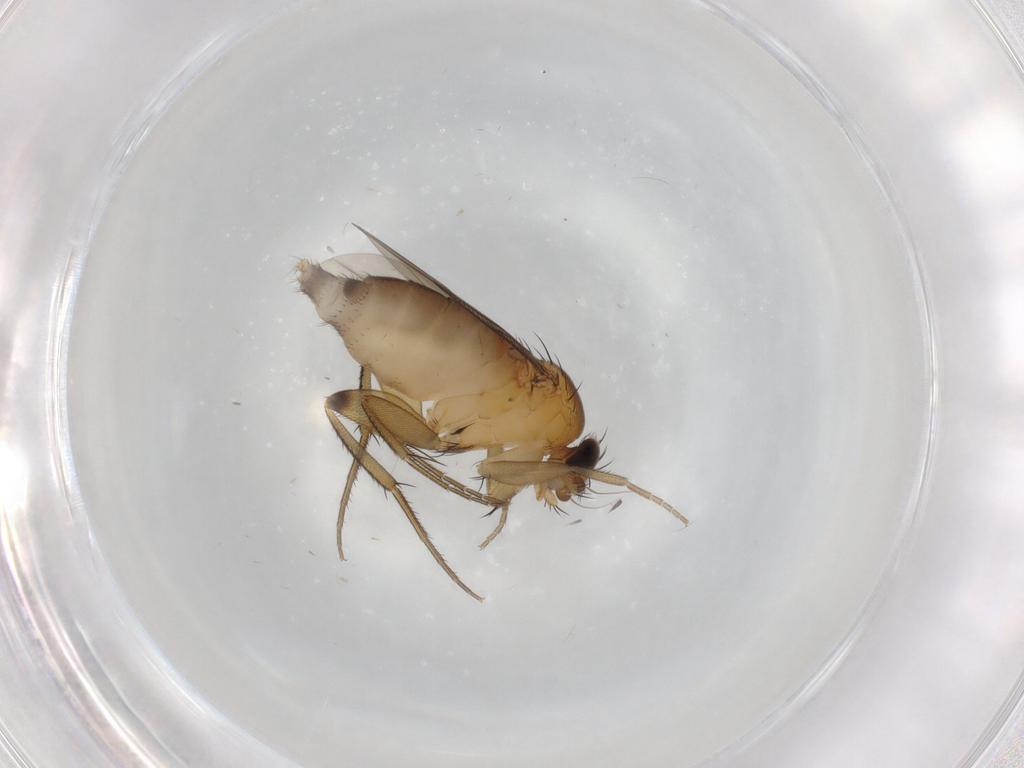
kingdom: Animalia
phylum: Arthropoda
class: Insecta
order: Diptera
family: Phoridae
